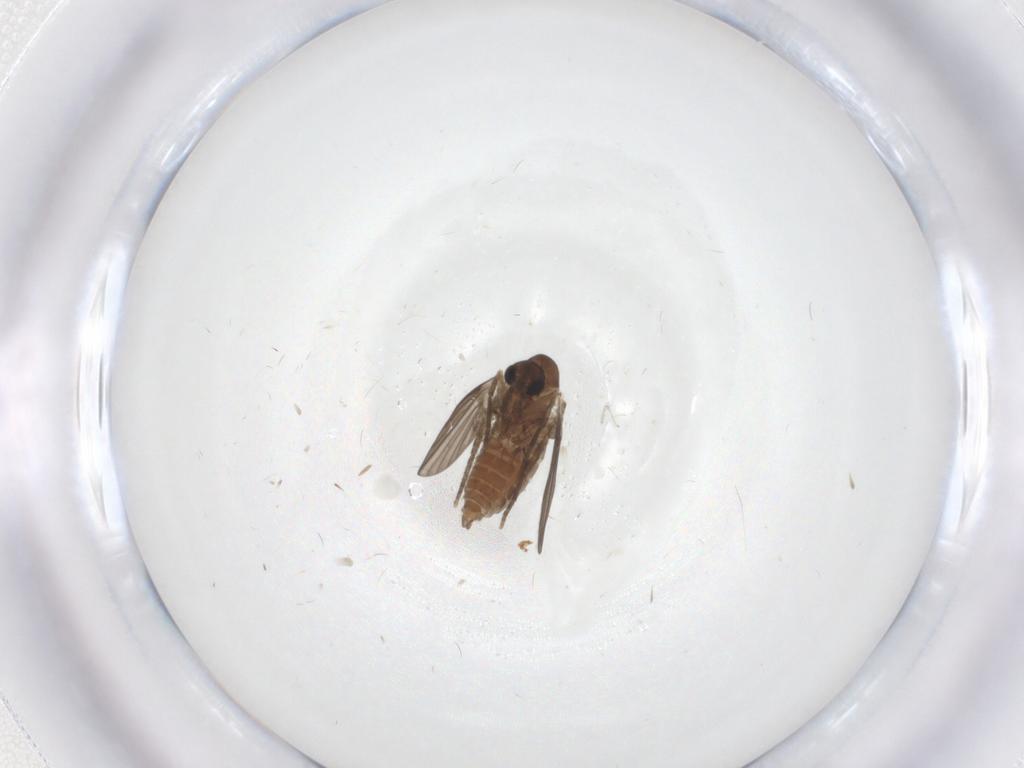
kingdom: Animalia
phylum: Arthropoda
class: Insecta
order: Diptera
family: Psychodidae
